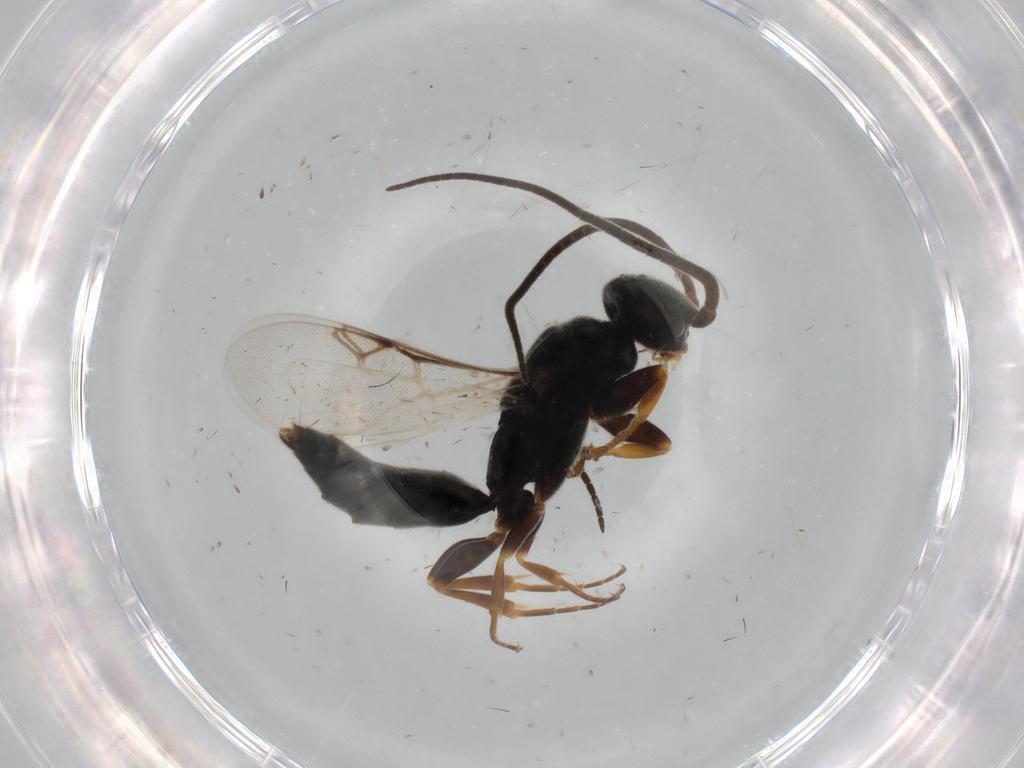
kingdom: Animalia
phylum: Arthropoda
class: Insecta
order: Hymenoptera
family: Sclerogibbidae
